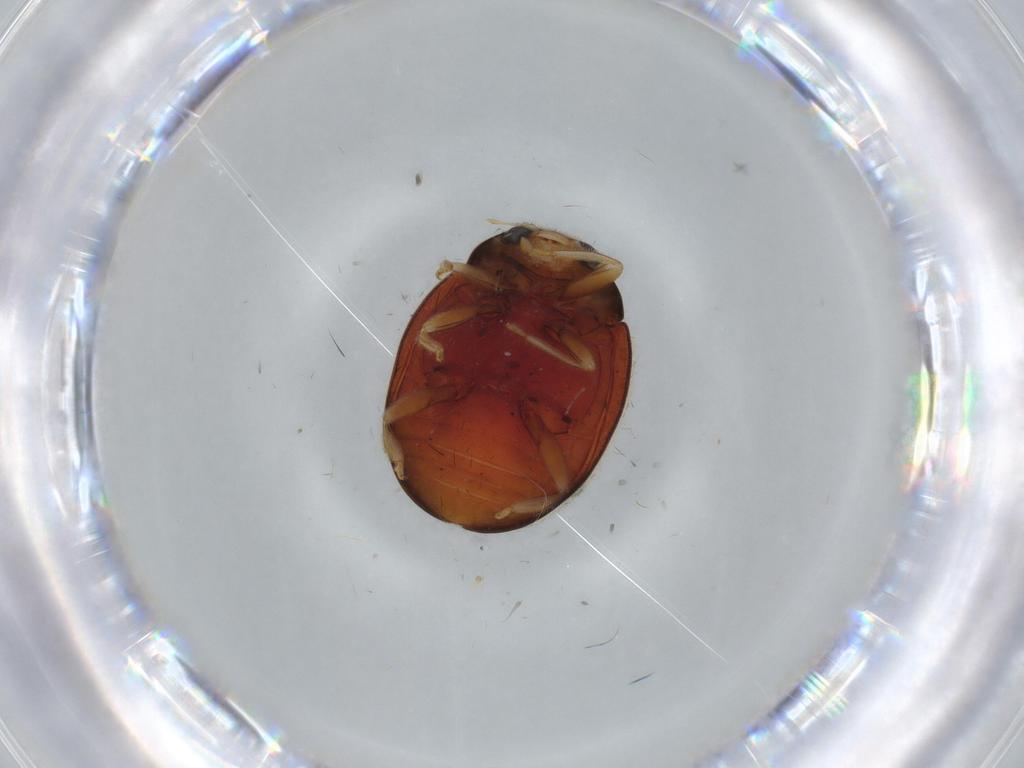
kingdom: Animalia
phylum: Arthropoda
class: Insecta
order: Coleoptera
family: Coccinellidae
